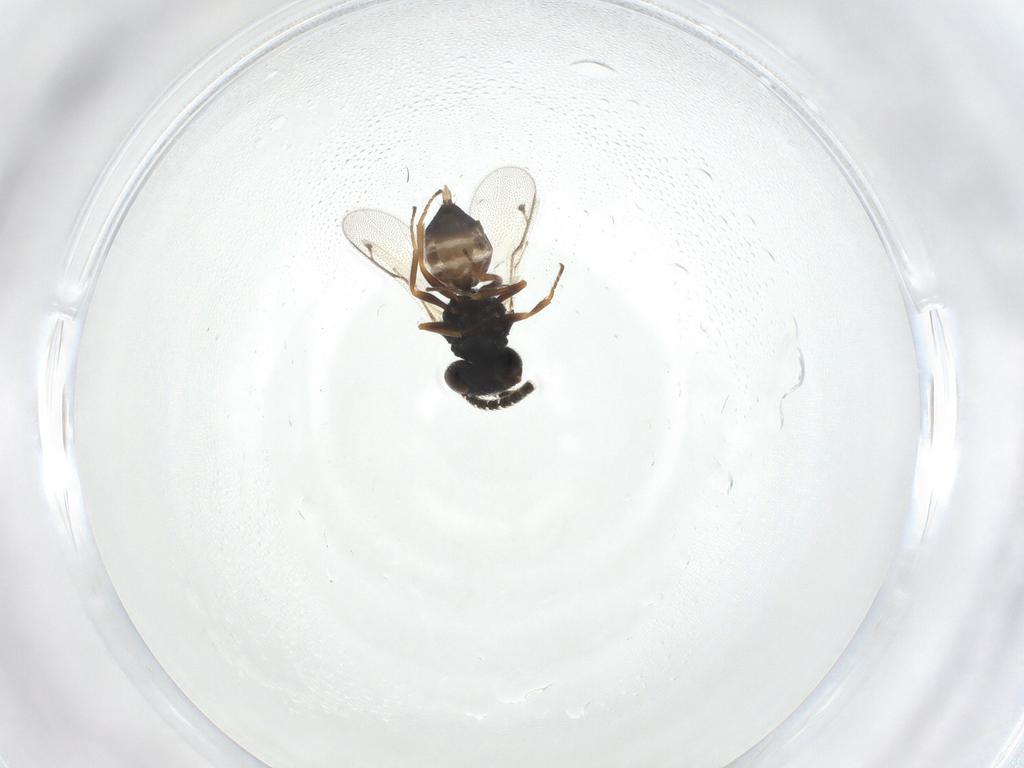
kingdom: Animalia
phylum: Arthropoda
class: Insecta
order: Hymenoptera
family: Pteromalidae
